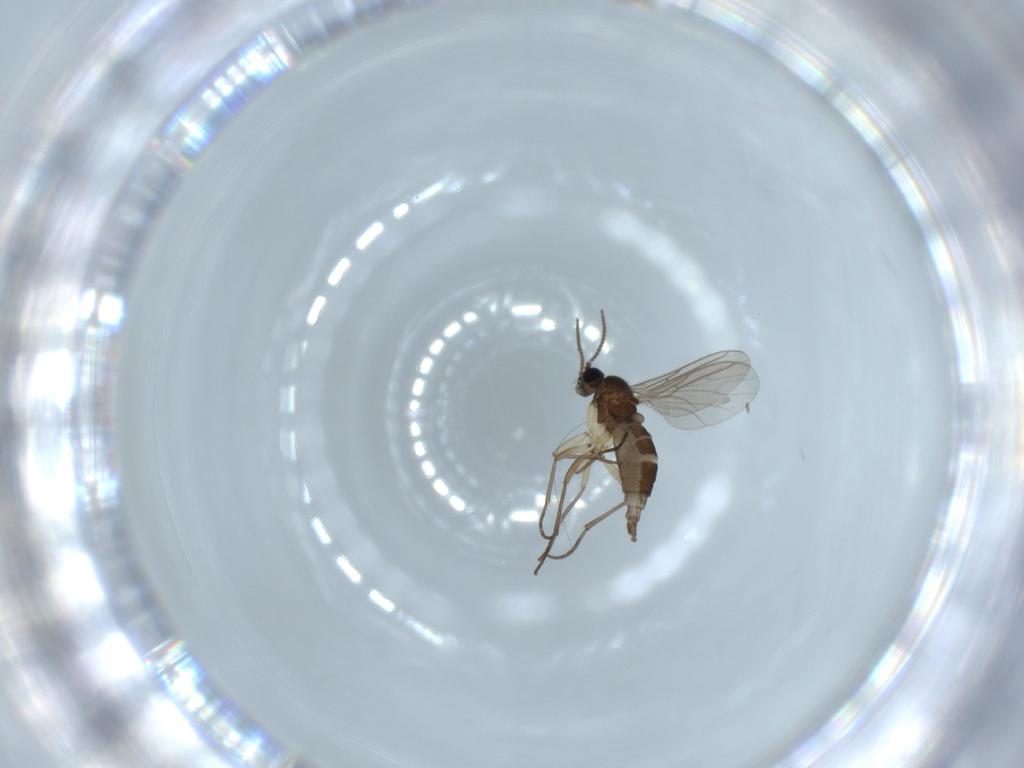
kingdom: Animalia
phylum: Arthropoda
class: Insecta
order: Diptera
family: Sciaridae
